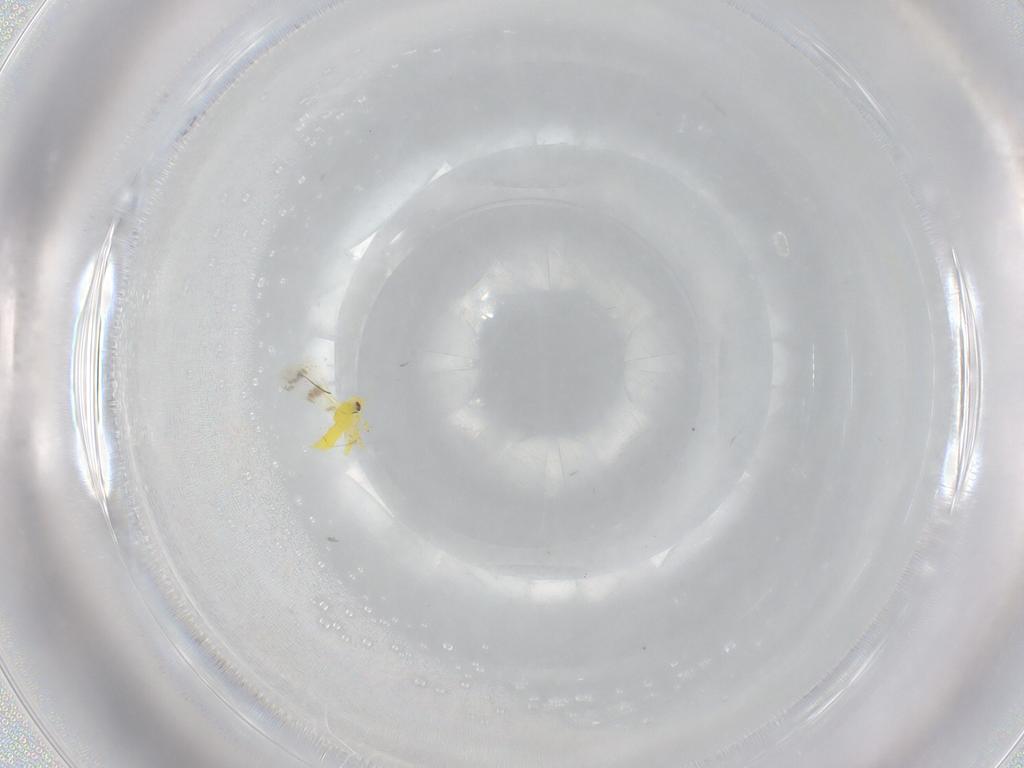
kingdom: Animalia
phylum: Arthropoda
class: Insecta
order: Hemiptera
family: Aleyrodidae
